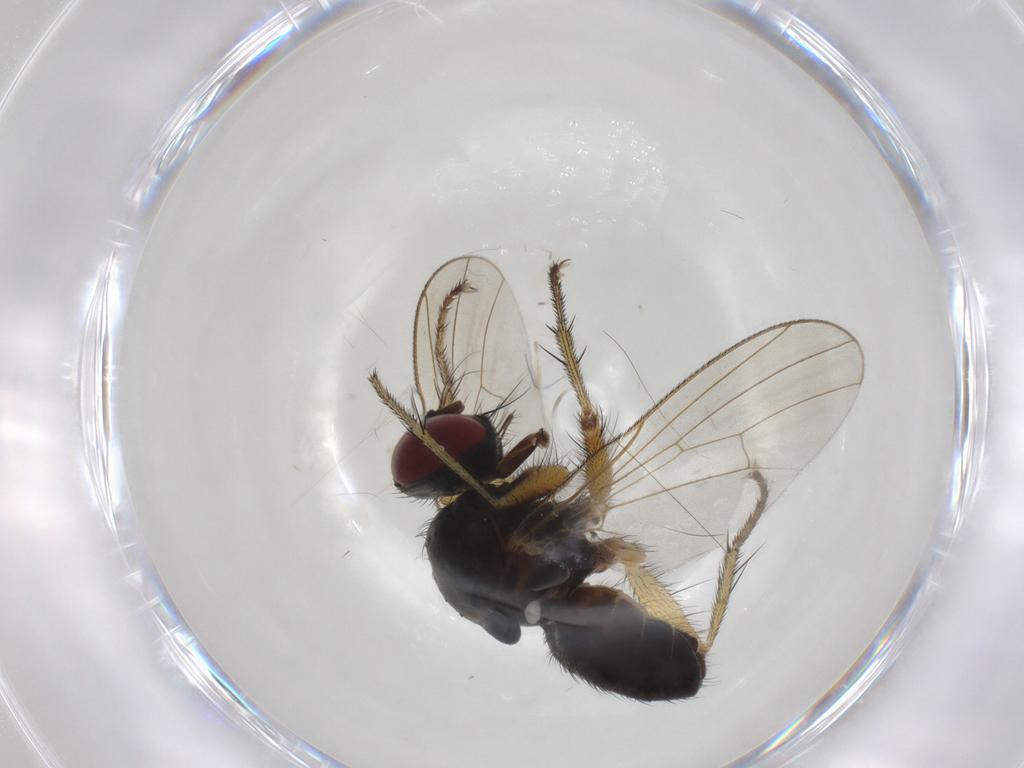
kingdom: Animalia
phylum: Arthropoda
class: Insecta
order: Diptera
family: Muscidae
